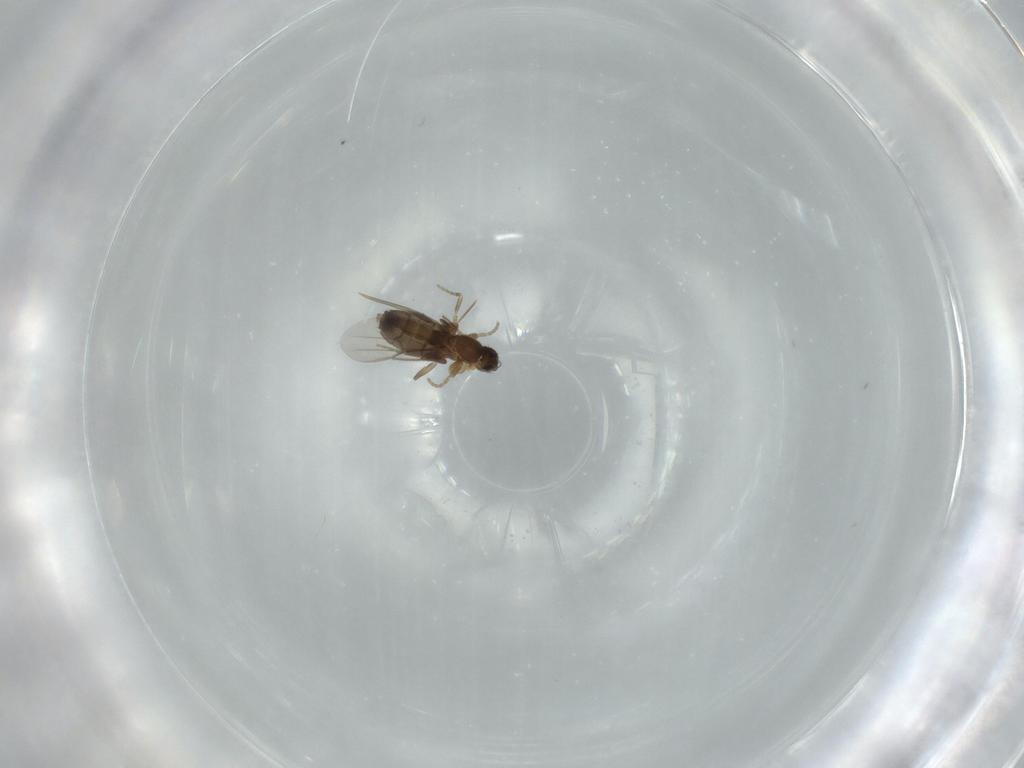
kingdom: Animalia
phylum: Arthropoda
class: Insecta
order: Diptera
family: Phoridae
